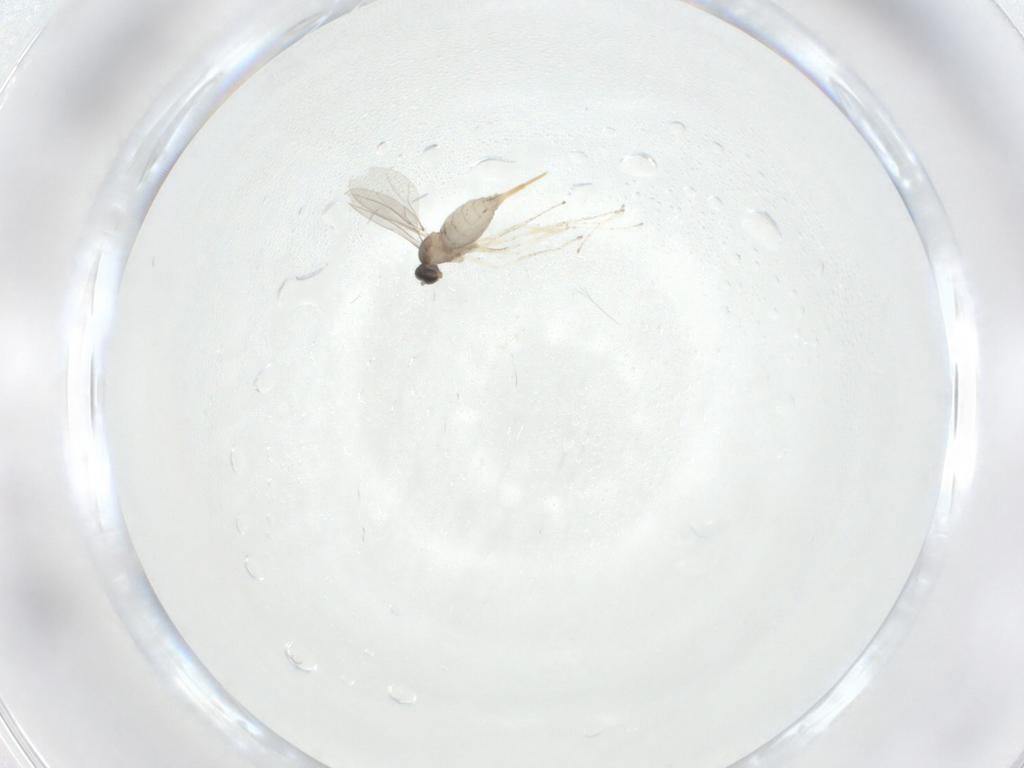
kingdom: Animalia
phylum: Arthropoda
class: Insecta
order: Diptera
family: Cecidomyiidae
